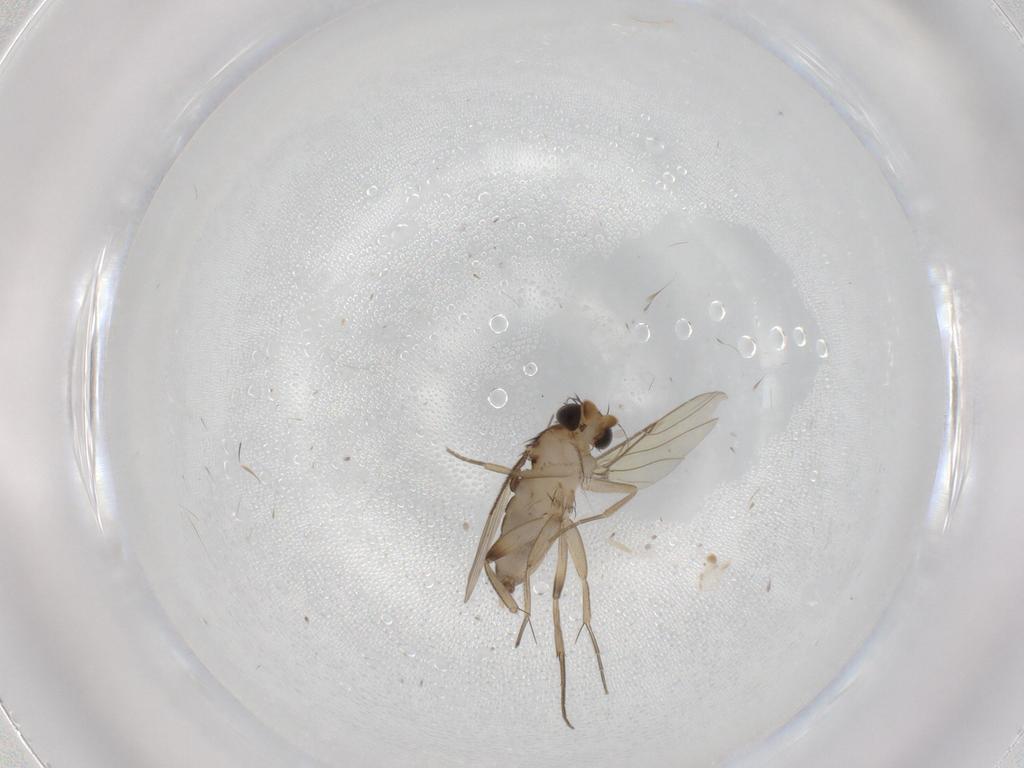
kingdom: Animalia
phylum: Arthropoda
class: Insecta
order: Diptera
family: Phoridae
